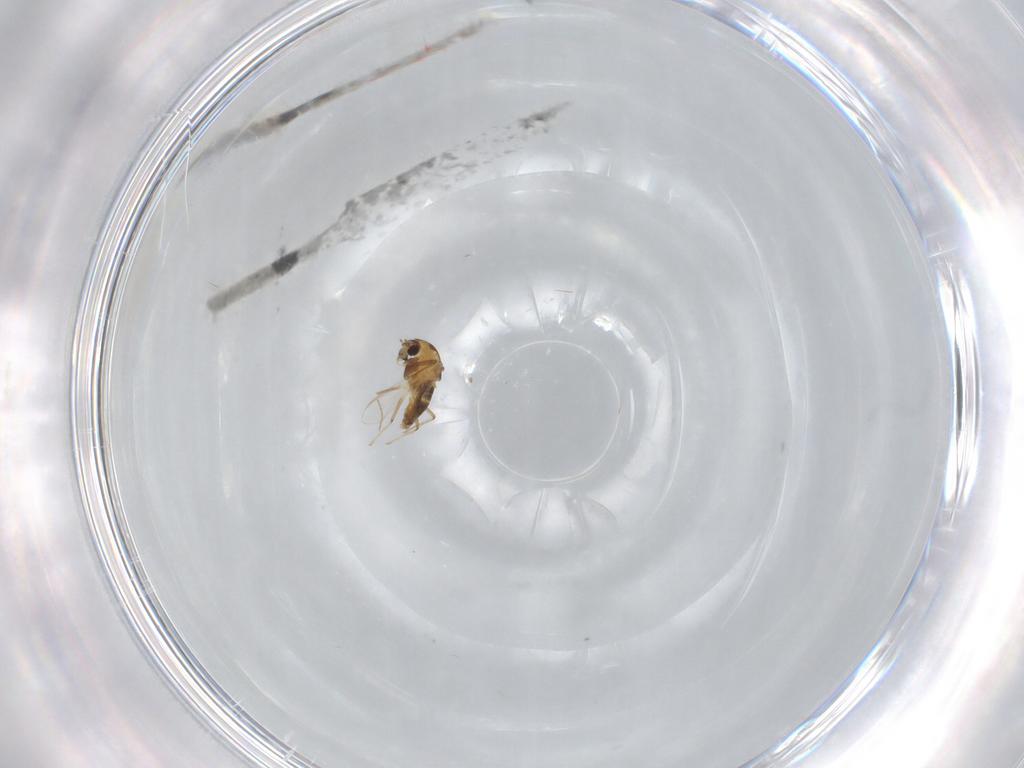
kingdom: Animalia
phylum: Arthropoda
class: Insecta
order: Diptera
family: Chironomidae
